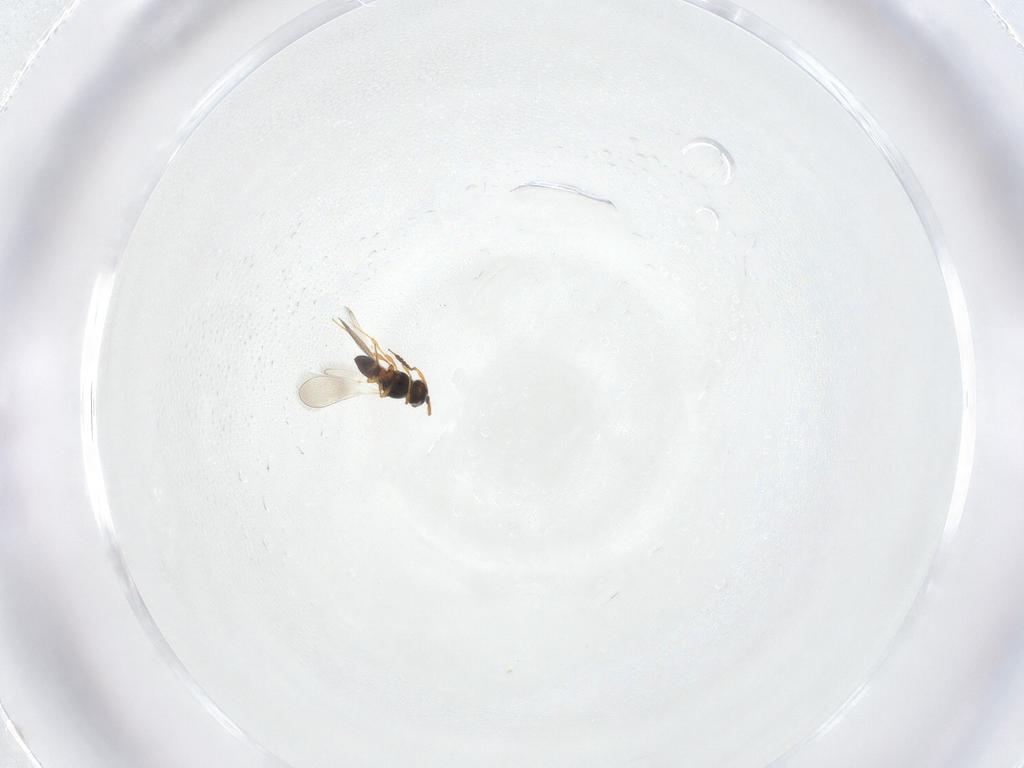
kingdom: Animalia
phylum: Arthropoda
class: Insecta
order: Hymenoptera
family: Platygastridae
